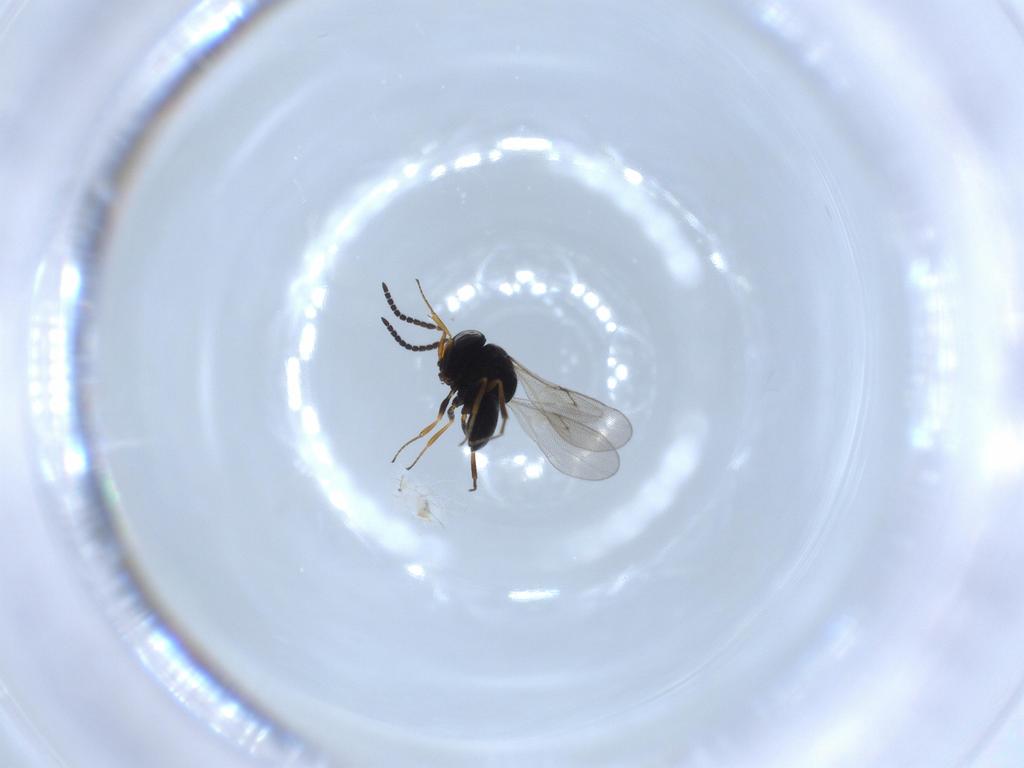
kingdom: Animalia
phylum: Arthropoda
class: Insecta
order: Hymenoptera
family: Scelionidae
